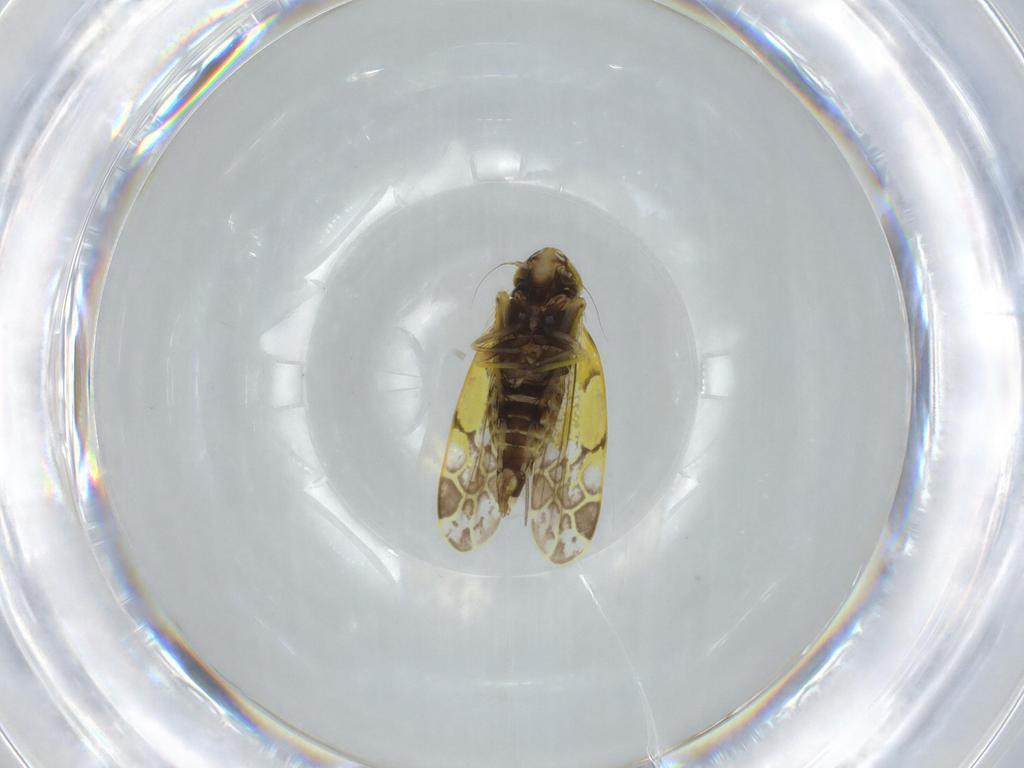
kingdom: Animalia
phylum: Arthropoda
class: Insecta
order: Hemiptera
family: Cicadellidae
